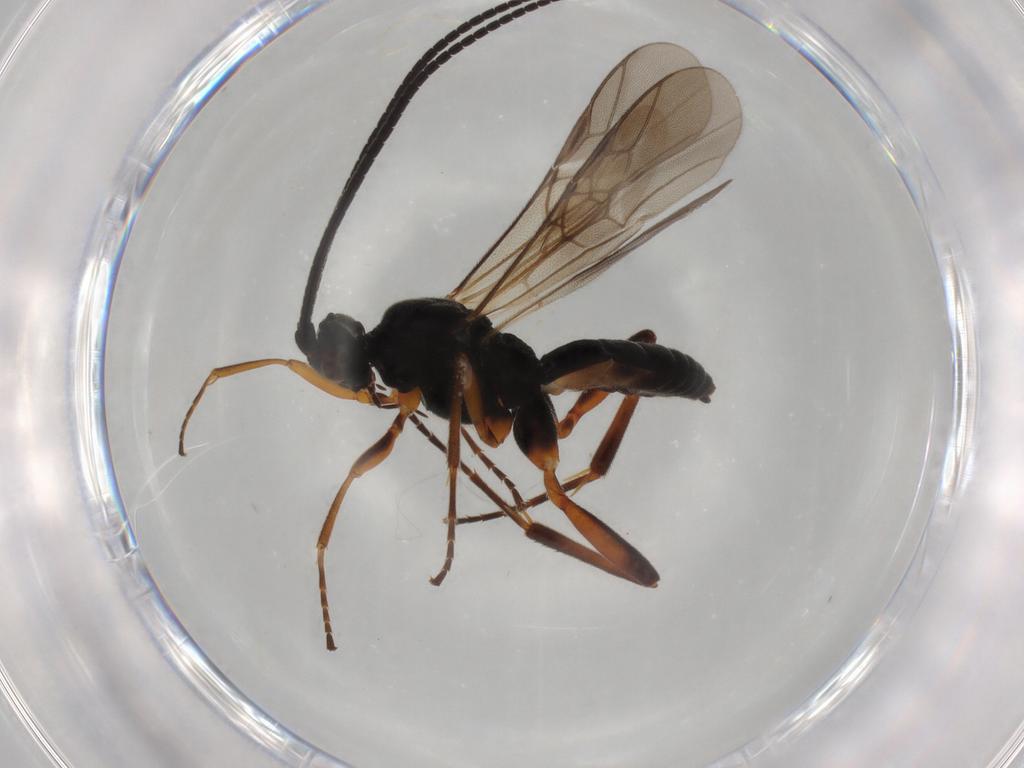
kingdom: Animalia
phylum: Arthropoda
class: Insecta
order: Hymenoptera
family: Braconidae
